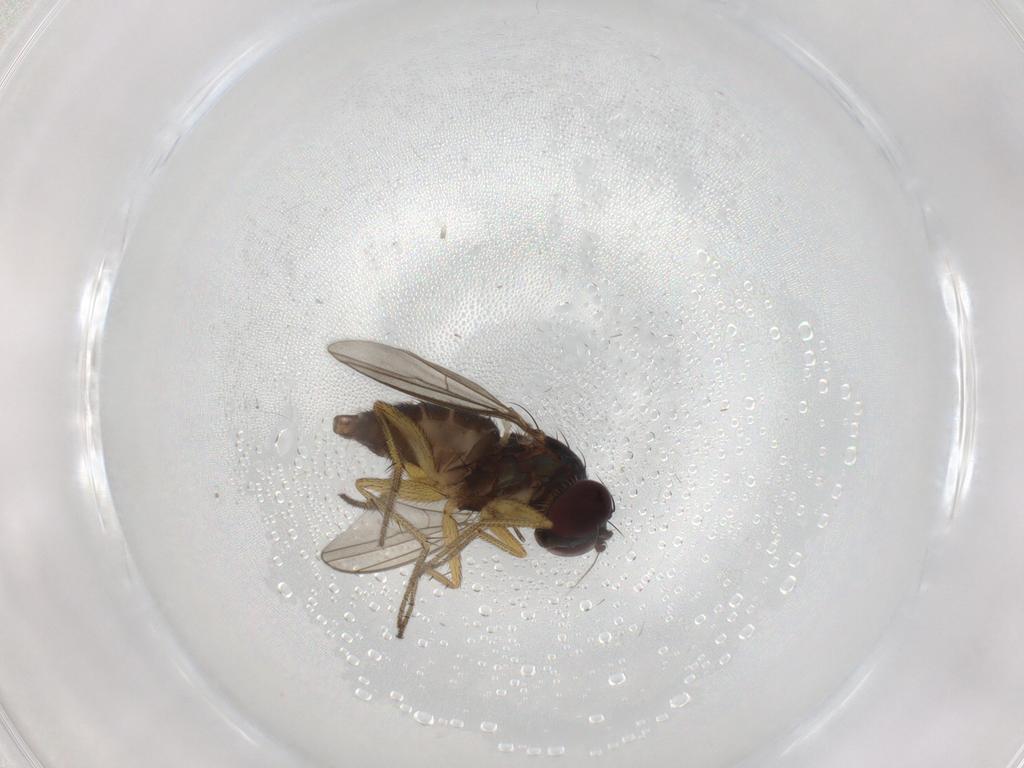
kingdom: Animalia
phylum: Arthropoda
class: Insecta
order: Diptera
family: Dolichopodidae
